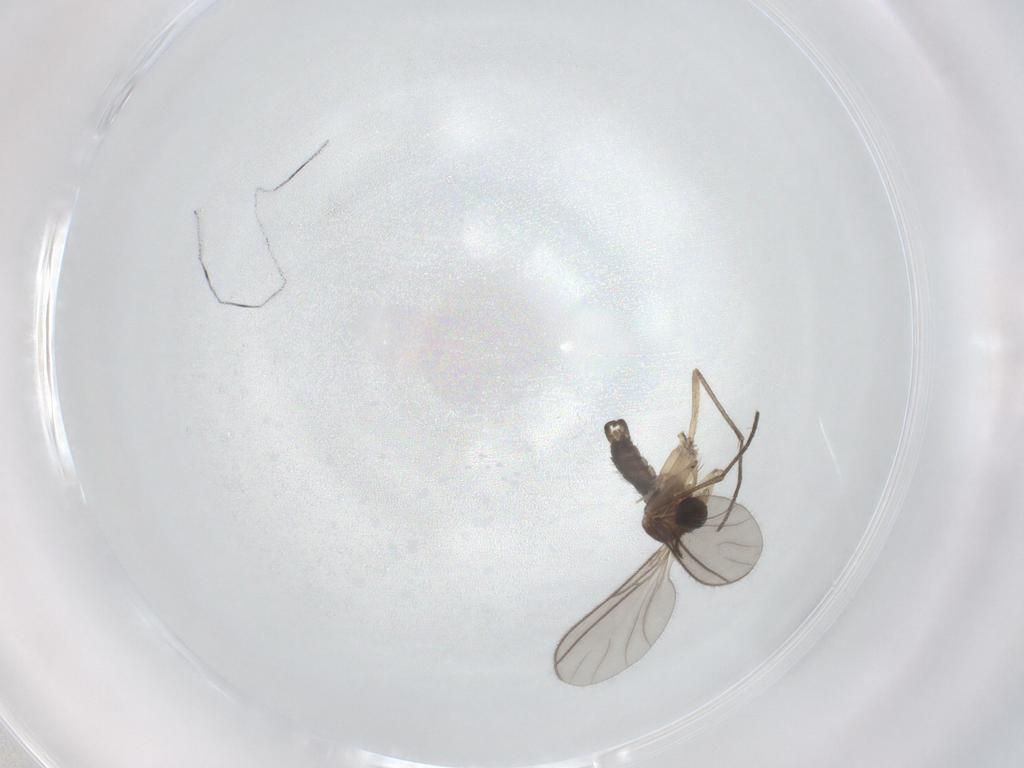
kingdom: Animalia
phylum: Arthropoda
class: Insecta
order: Diptera
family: Sciaridae
